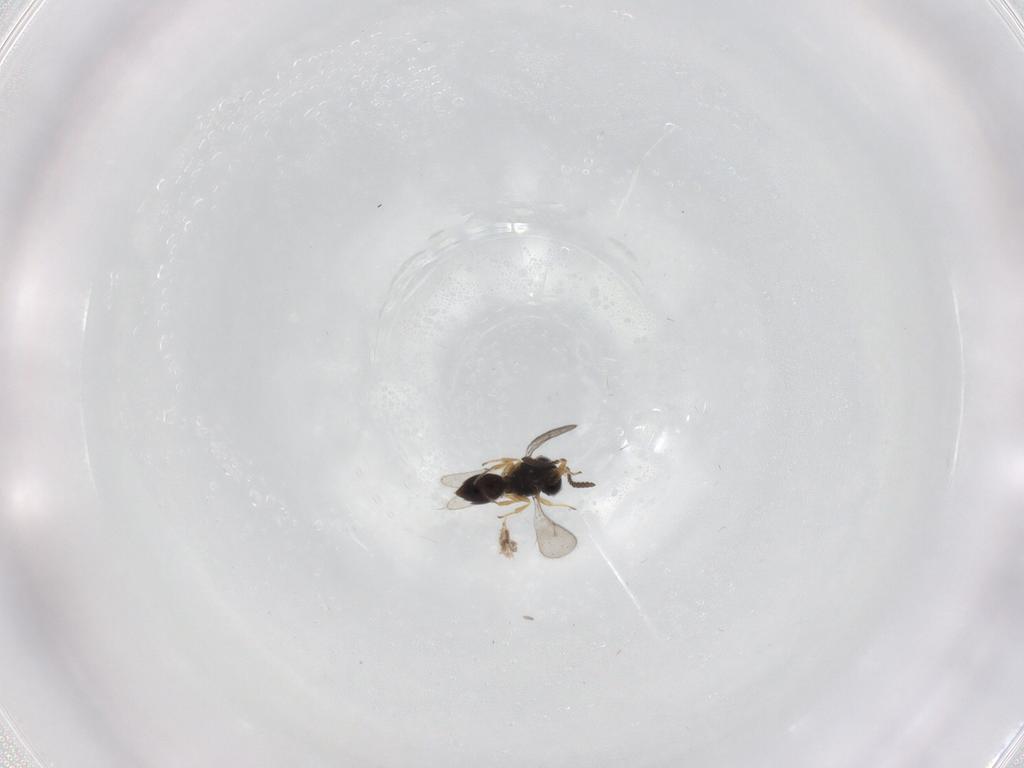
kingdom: Animalia
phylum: Arthropoda
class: Insecta
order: Hymenoptera
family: Scelionidae
